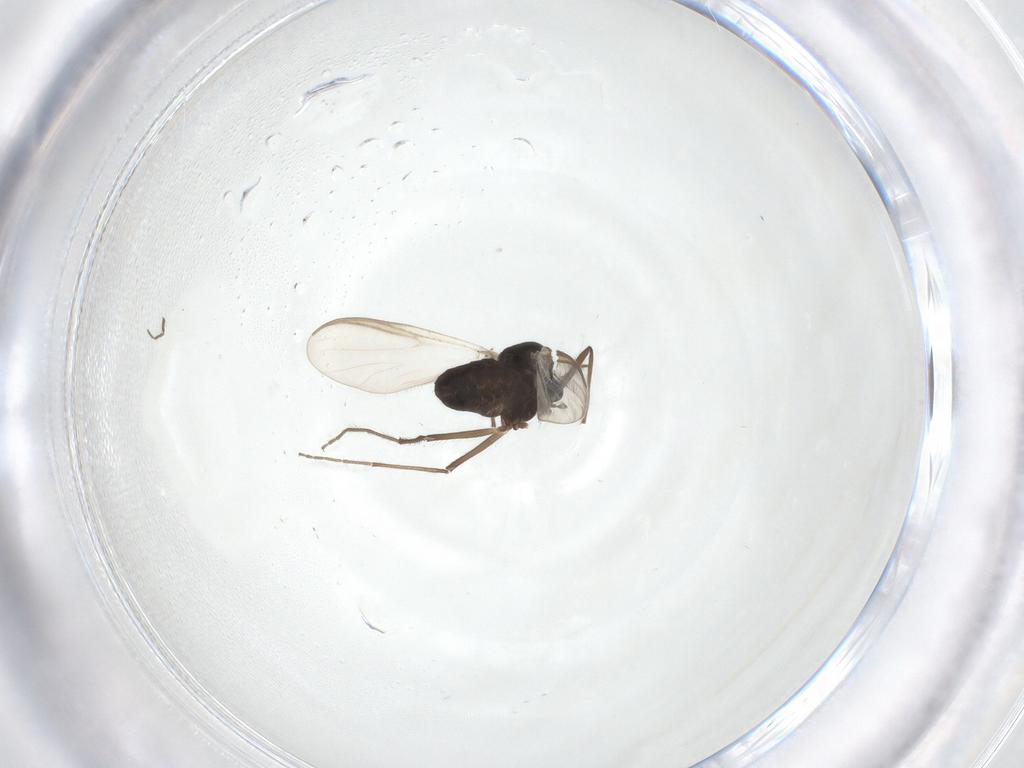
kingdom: Animalia
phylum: Arthropoda
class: Insecta
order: Diptera
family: Chironomidae
